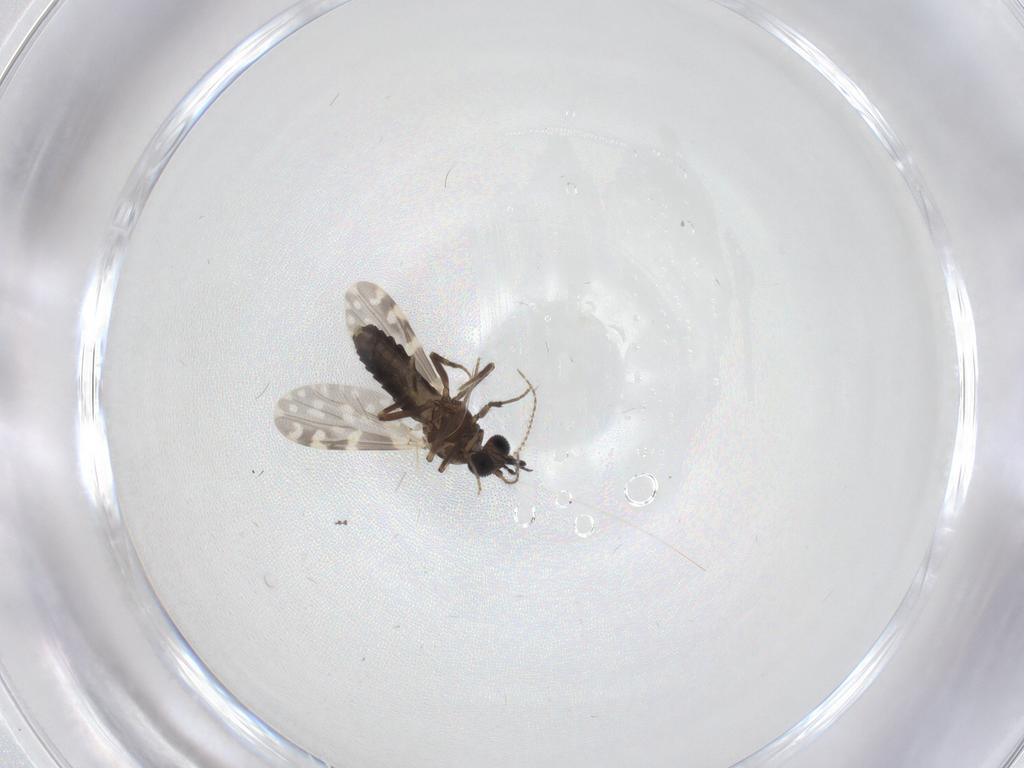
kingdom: Animalia
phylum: Arthropoda
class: Insecta
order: Diptera
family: Ceratopogonidae
